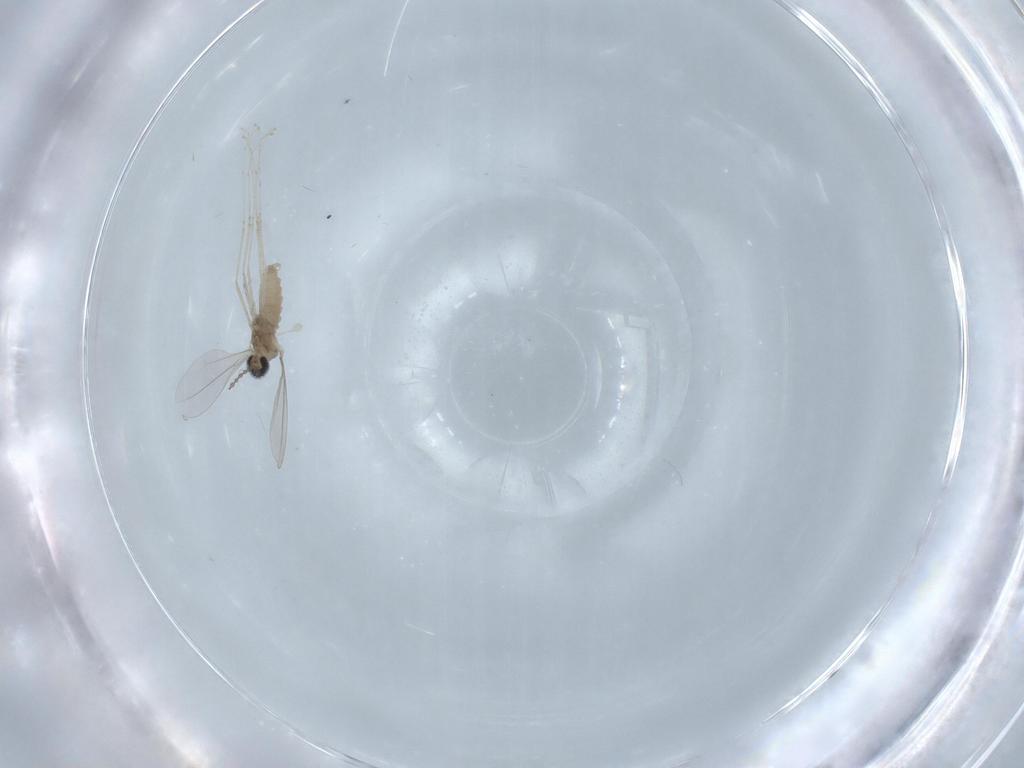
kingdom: Animalia
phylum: Arthropoda
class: Insecta
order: Diptera
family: Cecidomyiidae
